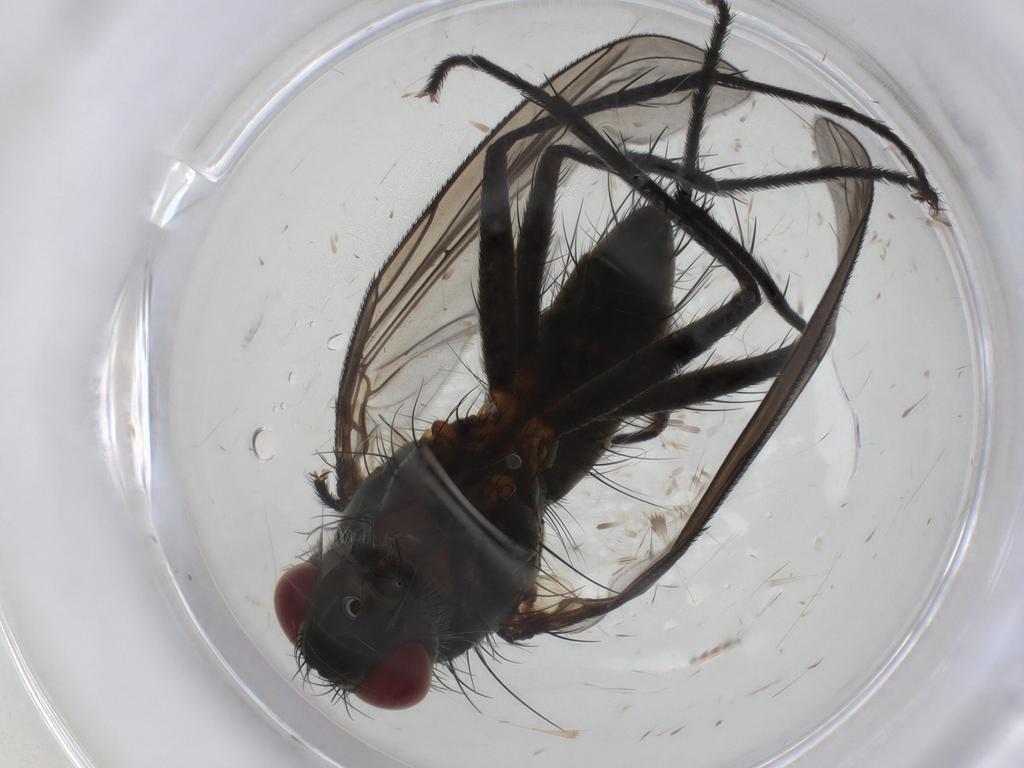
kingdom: Animalia
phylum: Arthropoda
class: Insecta
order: Diptera
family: Tachinidae
